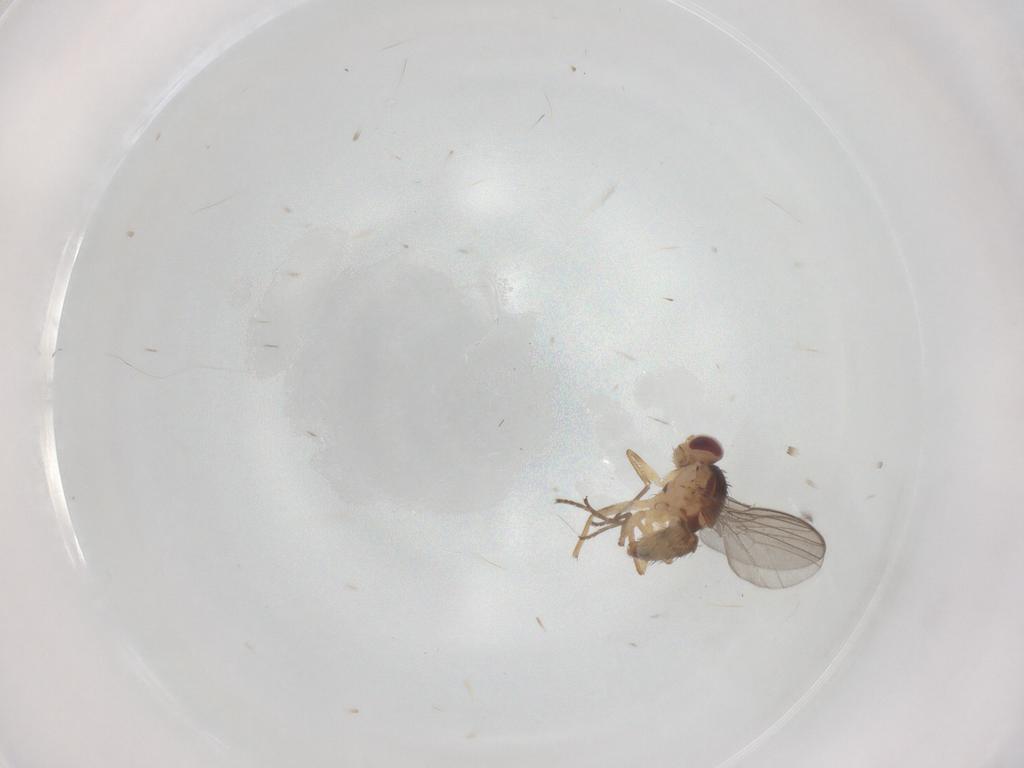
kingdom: Animalia
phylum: Arthropoda
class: Insecta
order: Diptera
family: Agromyzidae
